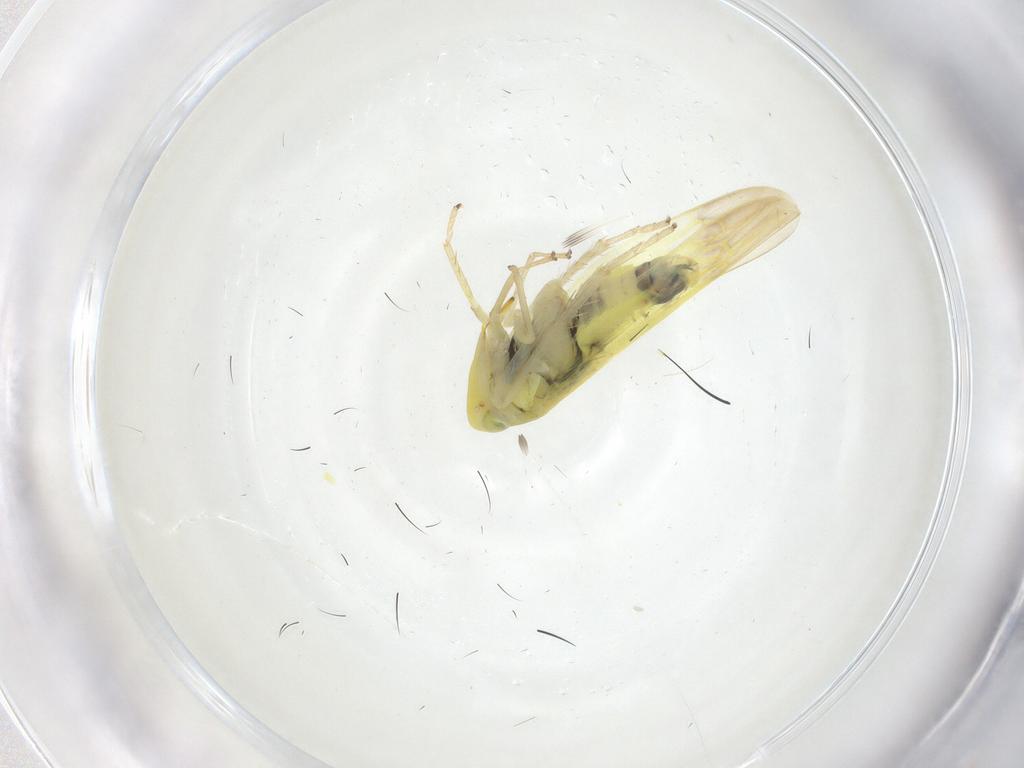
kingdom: Animalia
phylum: Arthropoda
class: Insecta
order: Hemiptera
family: Cicadellidae
